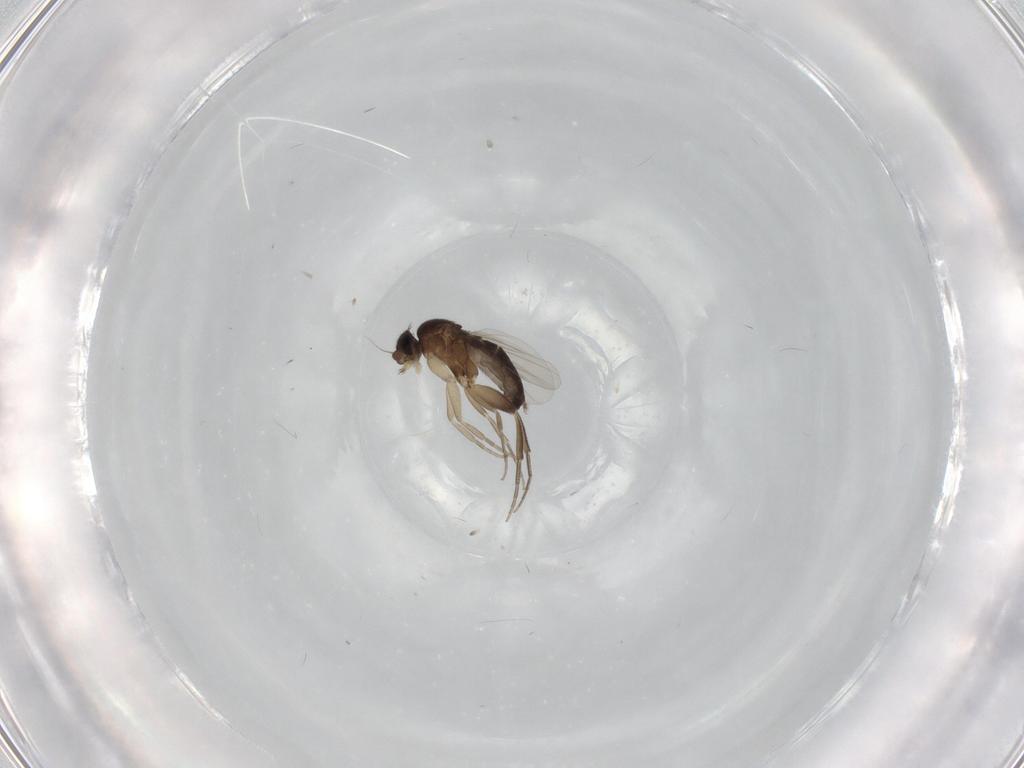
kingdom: Animalia
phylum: Arthropoda
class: Insecta
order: Diptera
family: Phoridae
